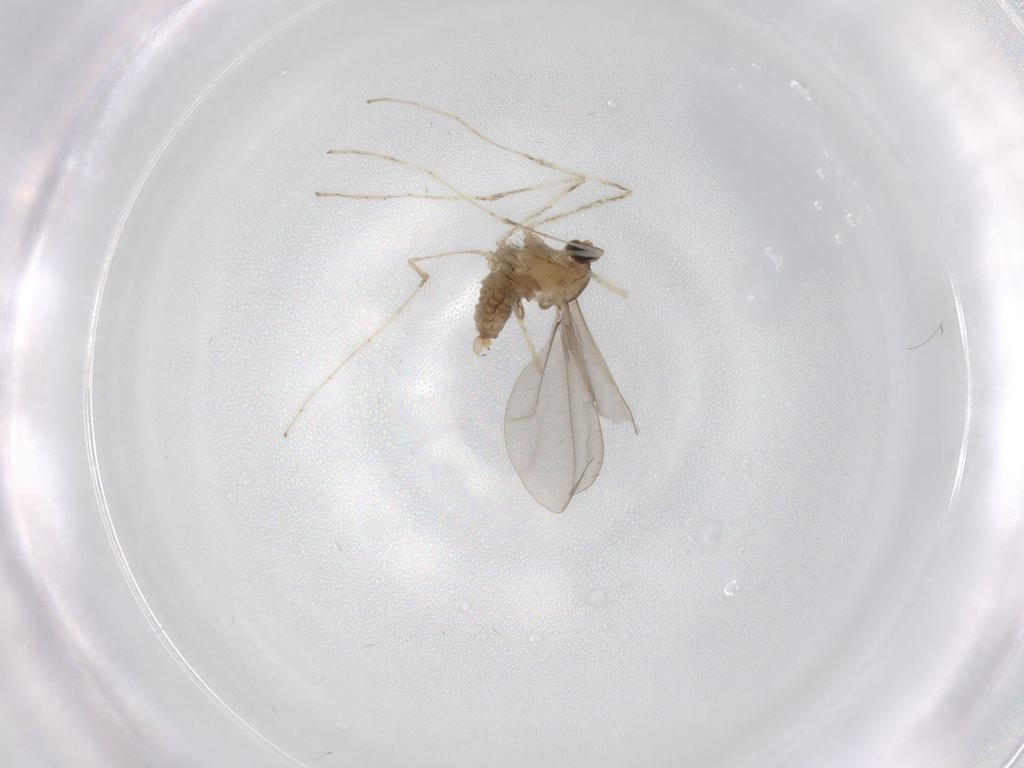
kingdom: Animalia
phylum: Arthropoda
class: Insecta
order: Diptera
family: Cecidomyiidae
